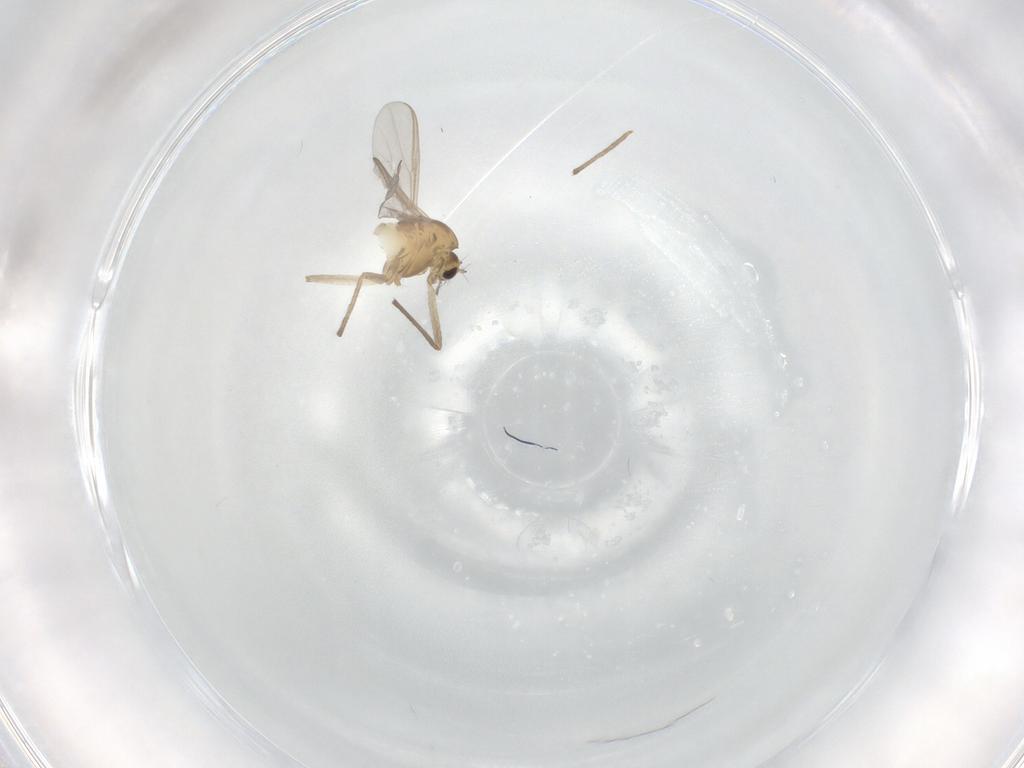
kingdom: Animalia
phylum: Arthropoda
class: Insecta
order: Diptera
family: Chironomidae
